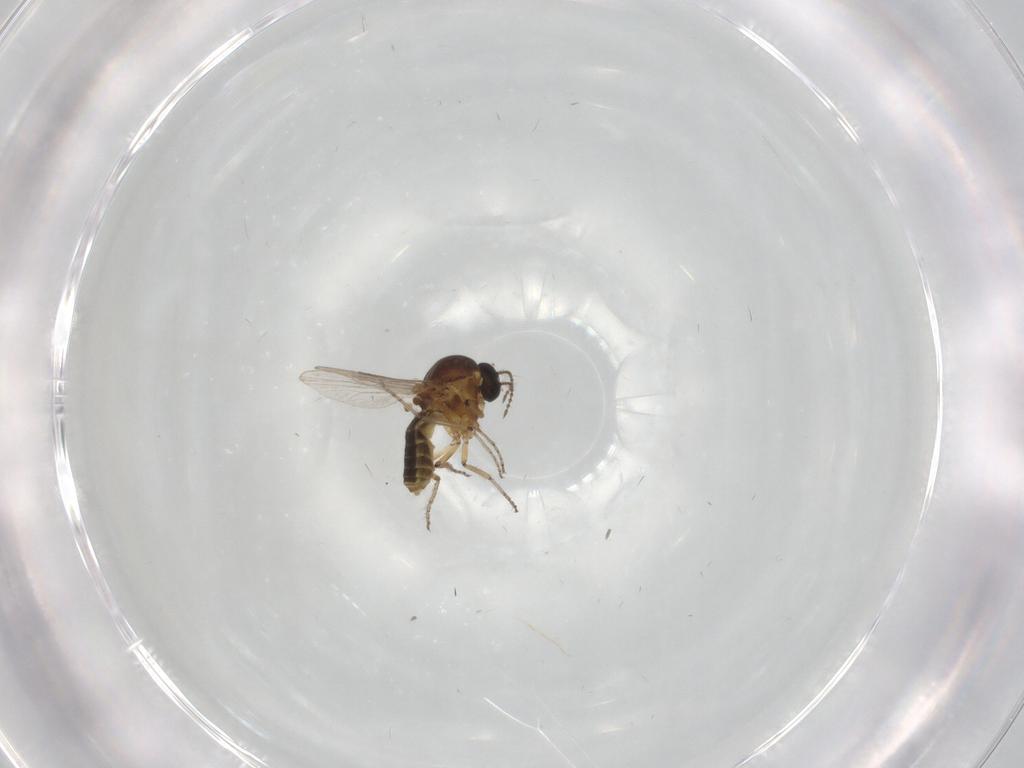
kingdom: Animalia
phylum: Arthropoda
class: Insecta
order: Diptera
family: Ceratopogonidae
